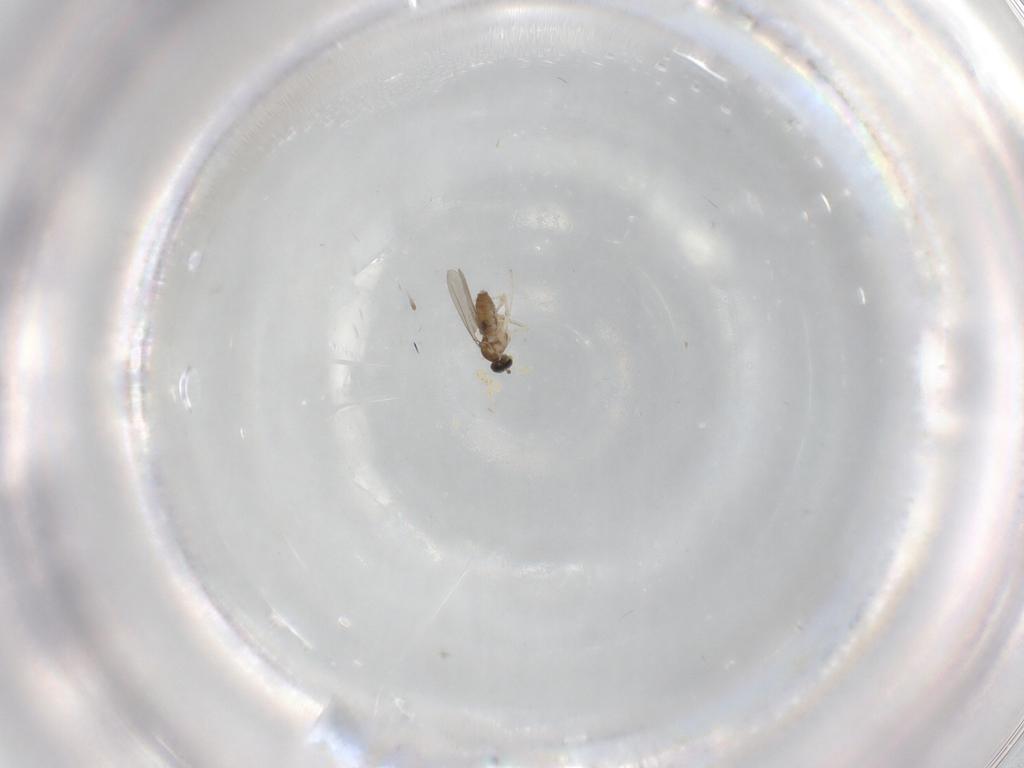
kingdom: Animalia
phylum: Arthropoda
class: Insecta
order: Diptera
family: Cecidomyiidae
